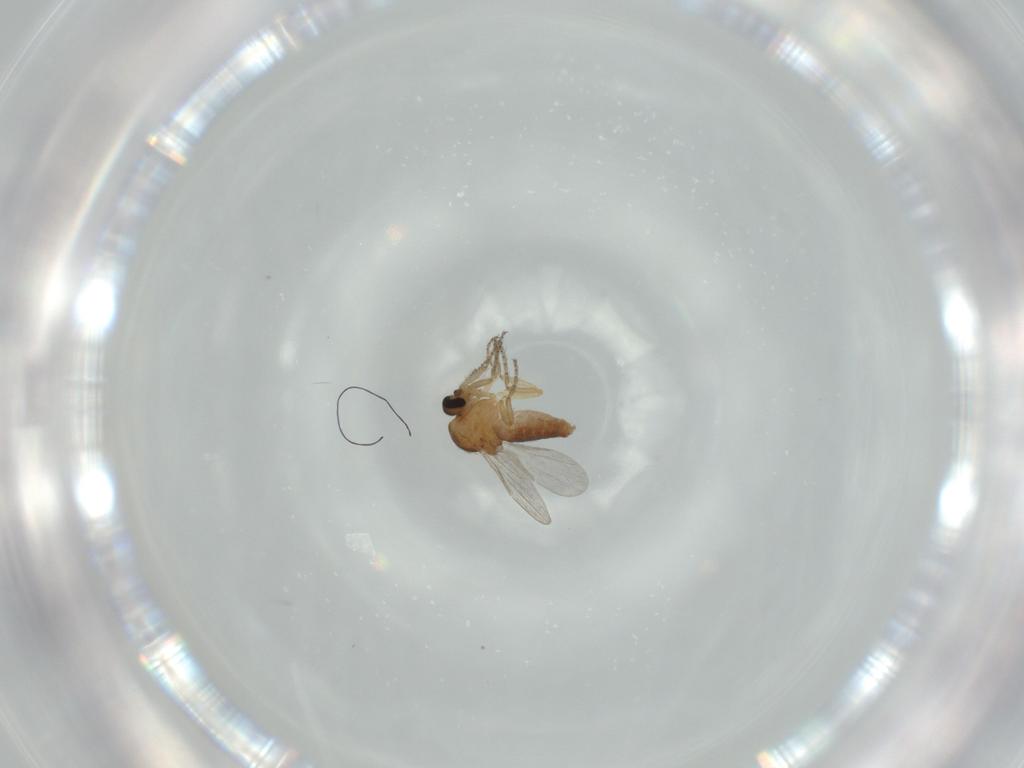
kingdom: Animalia
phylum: Arthropoda
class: Insecta
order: Diptera
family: Ceratopogonidae
